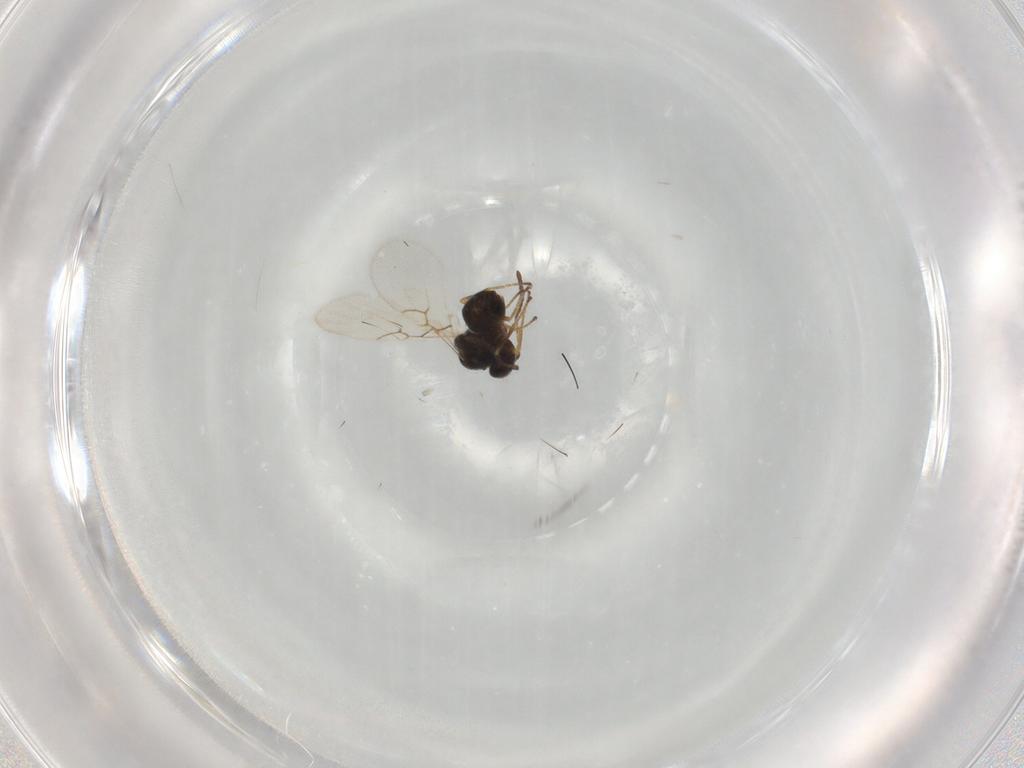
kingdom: Animalia
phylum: Arthropoda
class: Insecta
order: Hymenoptera
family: Figitidae
